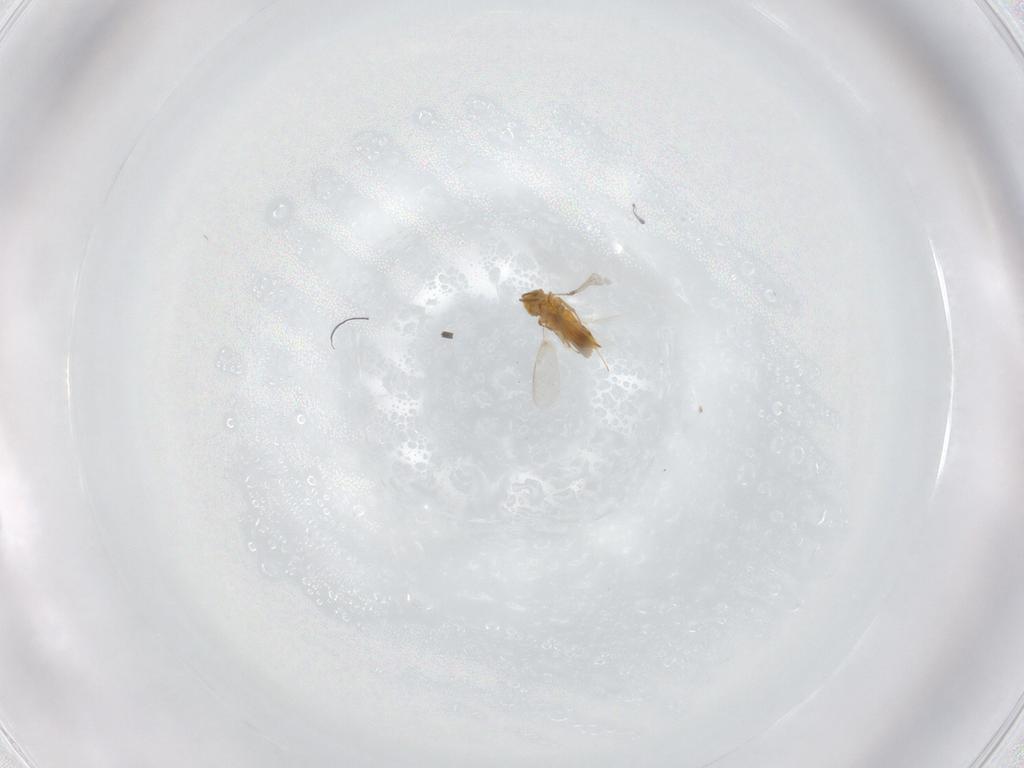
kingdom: Animalia
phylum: Arthropoda
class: Insecta
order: Hymenoptera
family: Aphelinidae
